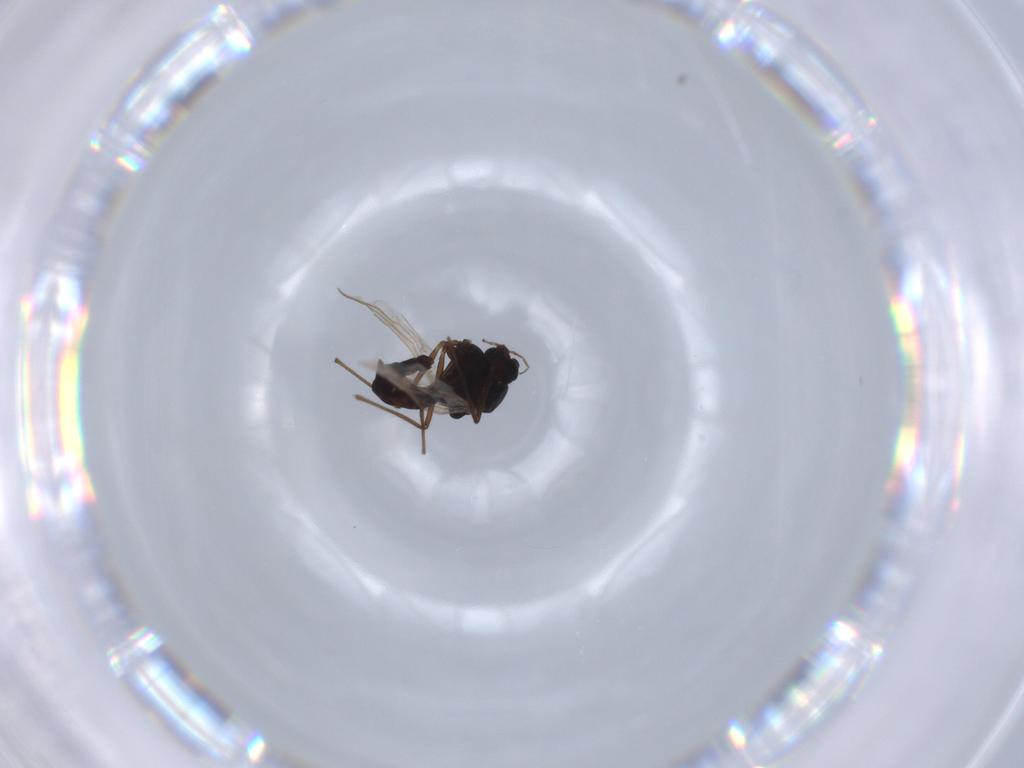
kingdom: Animalia
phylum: Arthropoda
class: Insecta
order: Diptera
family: Chironomidae
